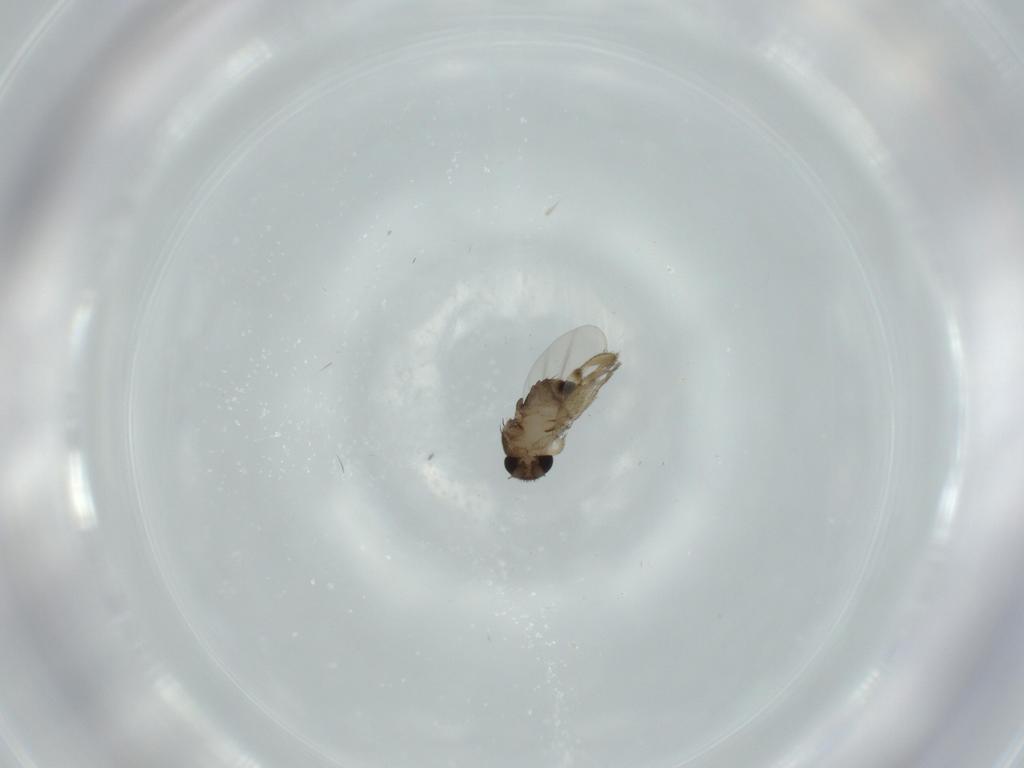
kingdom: Animalia
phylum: Arthropoda
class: Insecta
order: Diptera
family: Phoridae
